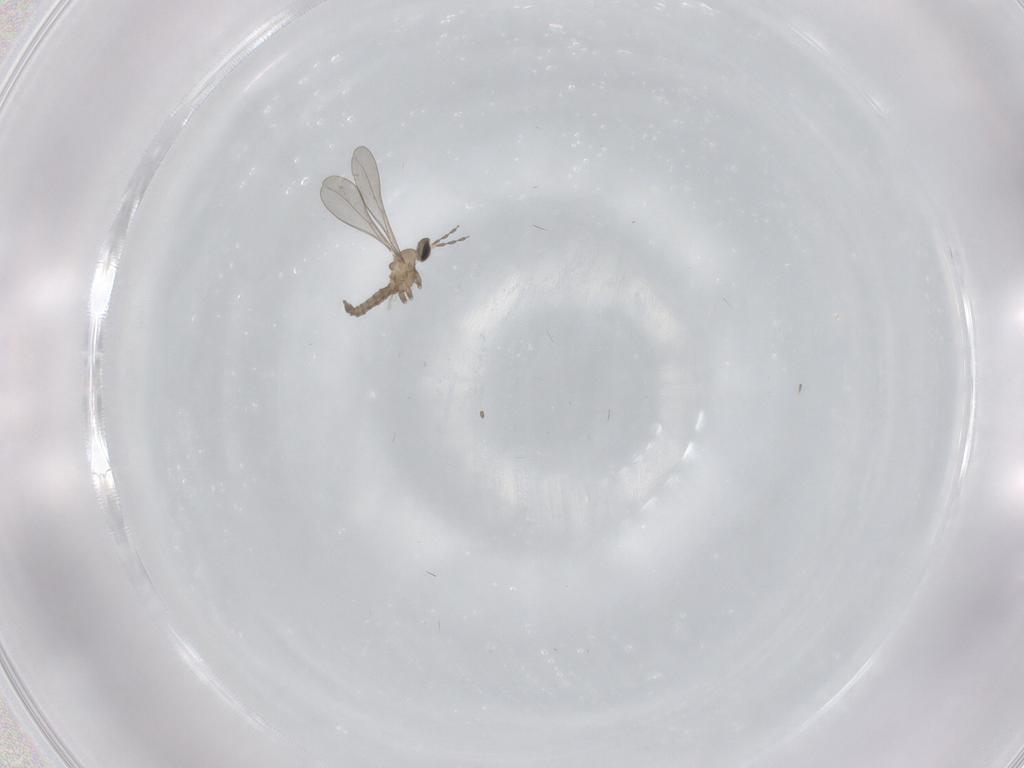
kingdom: Animalia
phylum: Arthropoda
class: Insecta
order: Diptera
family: Cecidomyiidae
